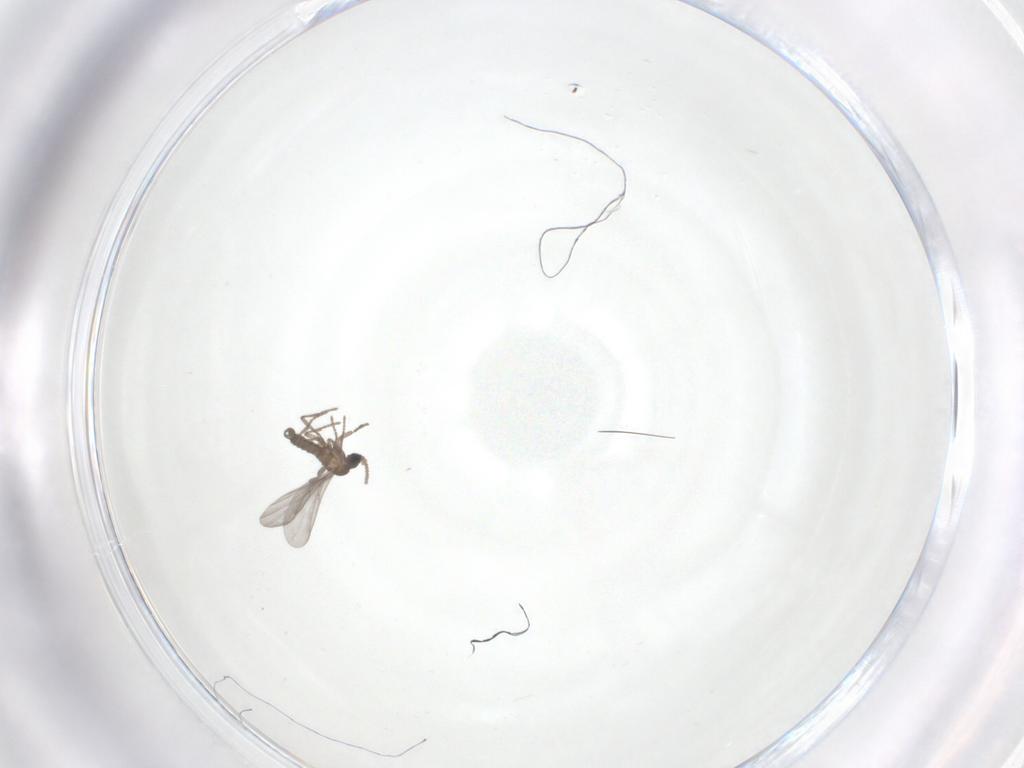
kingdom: Animalia
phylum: Arthropoda
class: Insecta
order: Diptera
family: Sciaridae
